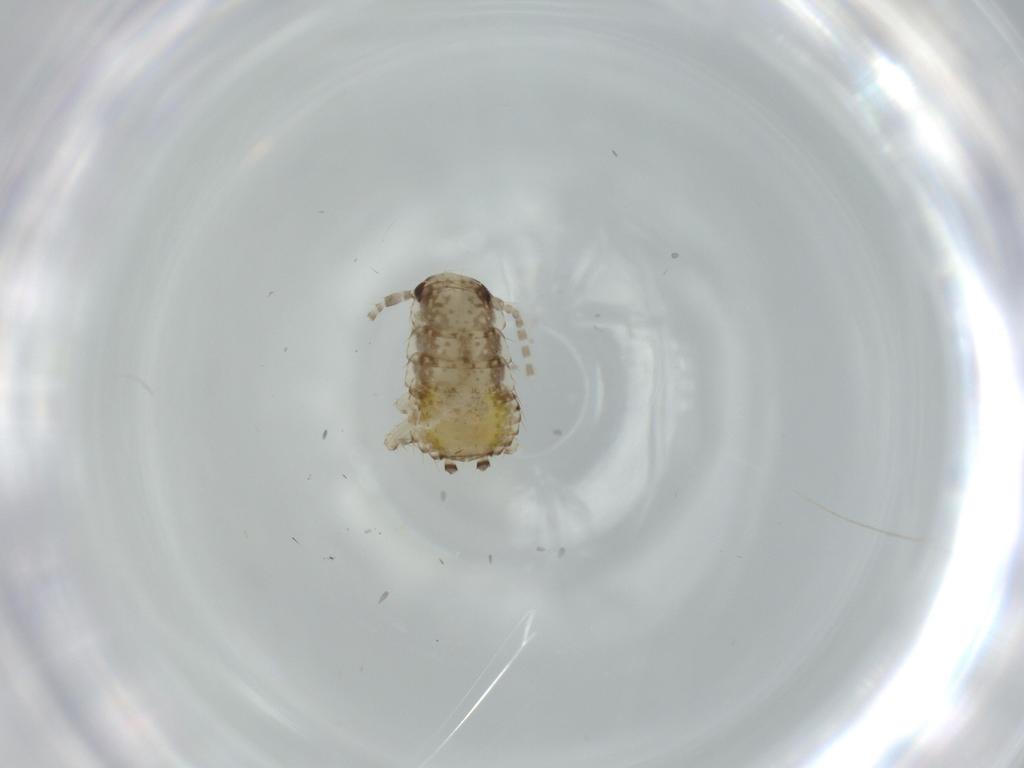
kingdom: Animalia
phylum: Arthropoda
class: Insecta
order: Blattodea
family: Ectobiidae
